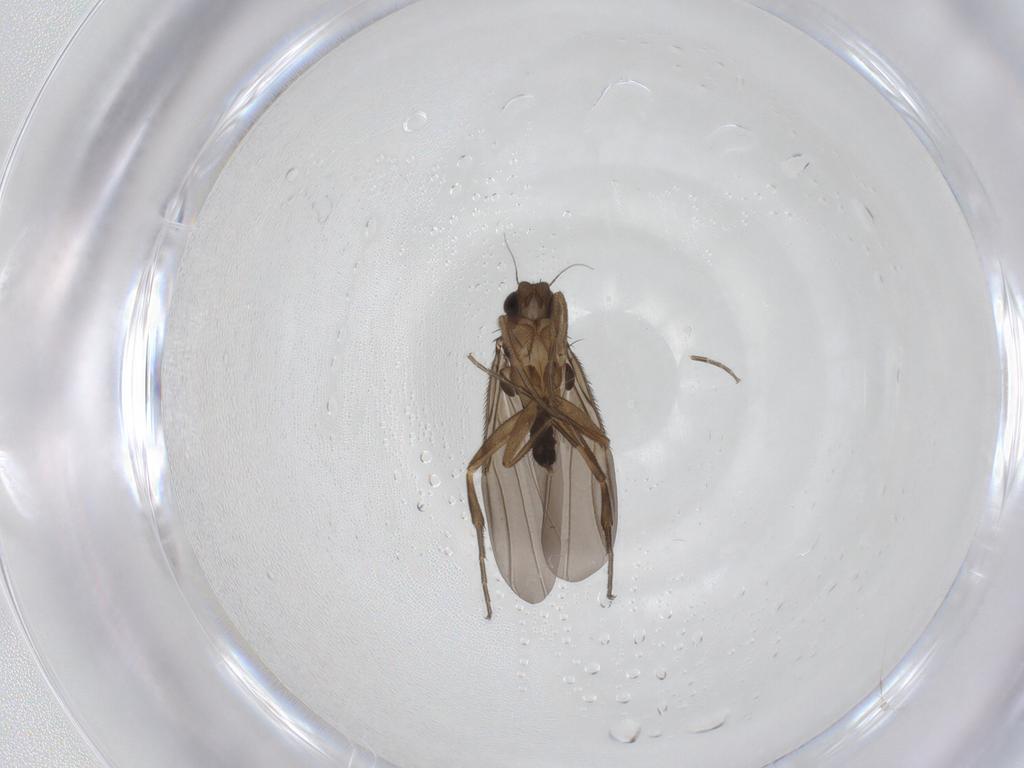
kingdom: Animalia
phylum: Arthropoda
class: Insecta
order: Diptera
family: Phoridae
